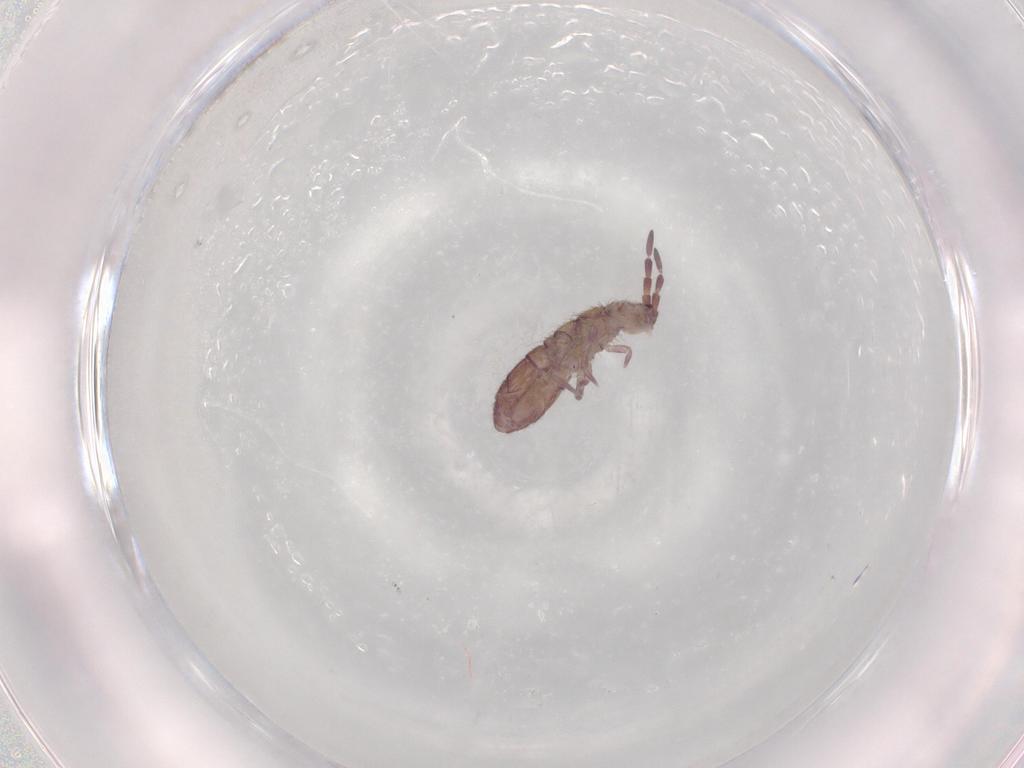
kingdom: Animalia
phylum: Arthropoda
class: Collembola
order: Entomobryomorpha
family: Isotomidae
